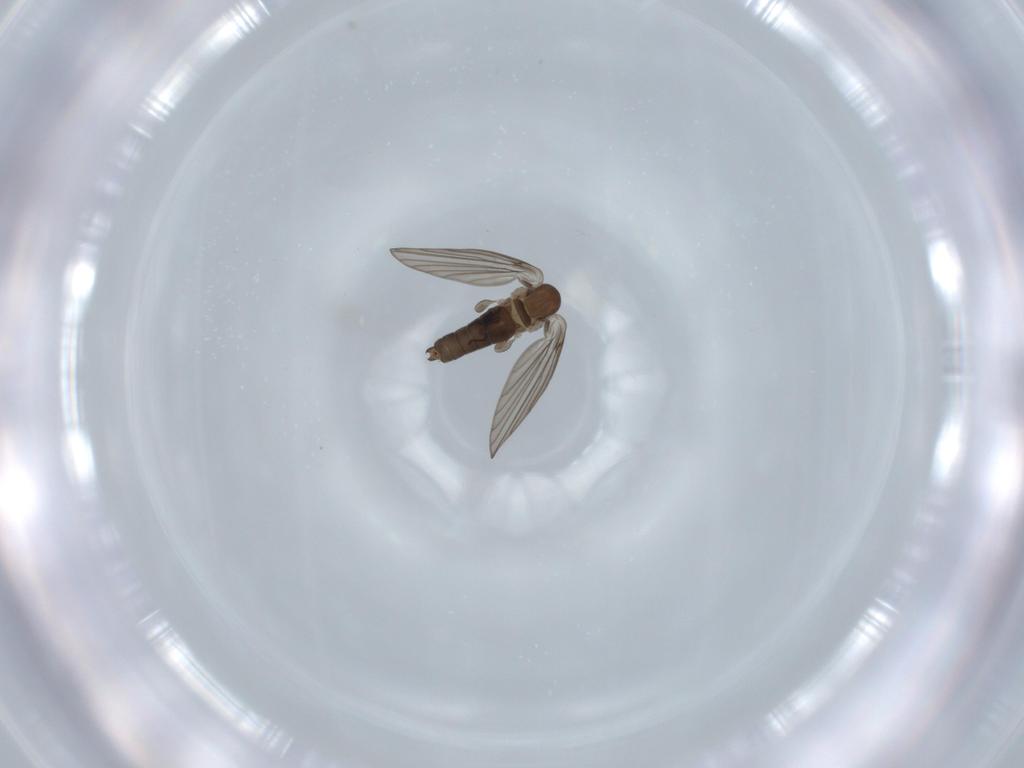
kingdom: Animalia
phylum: Arthropoda
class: Insecta
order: Diptera
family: Psychodidae
